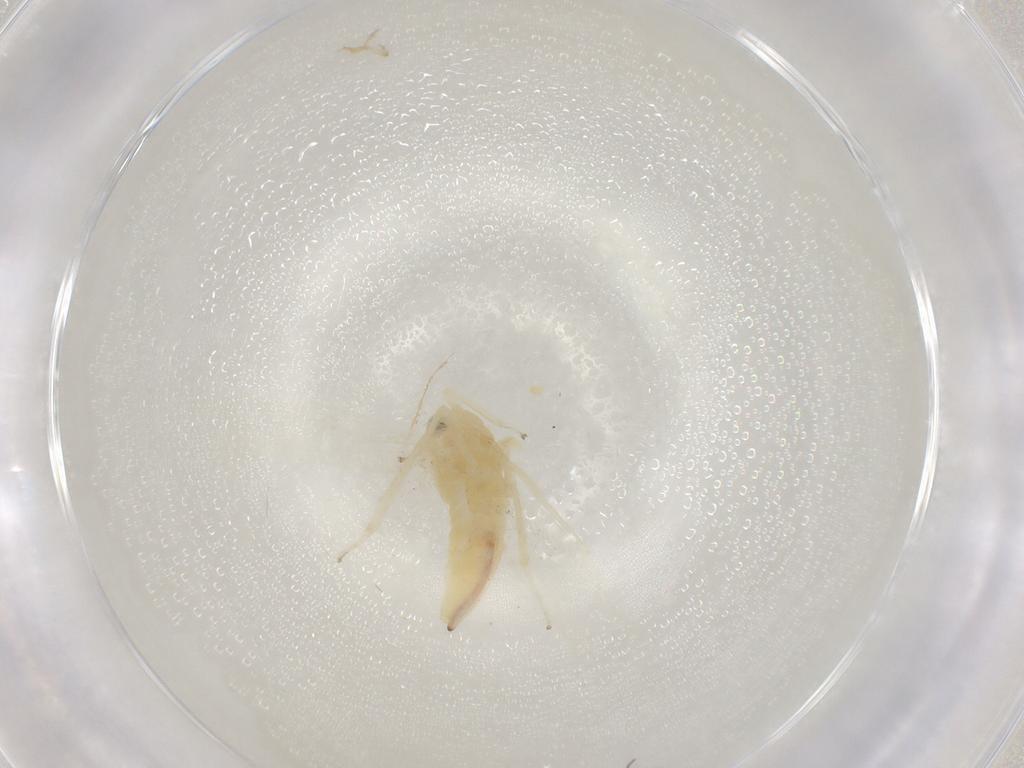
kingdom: Animalia
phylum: Arthropoda
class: Insecta
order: Hemiptera
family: Cicadellidae
